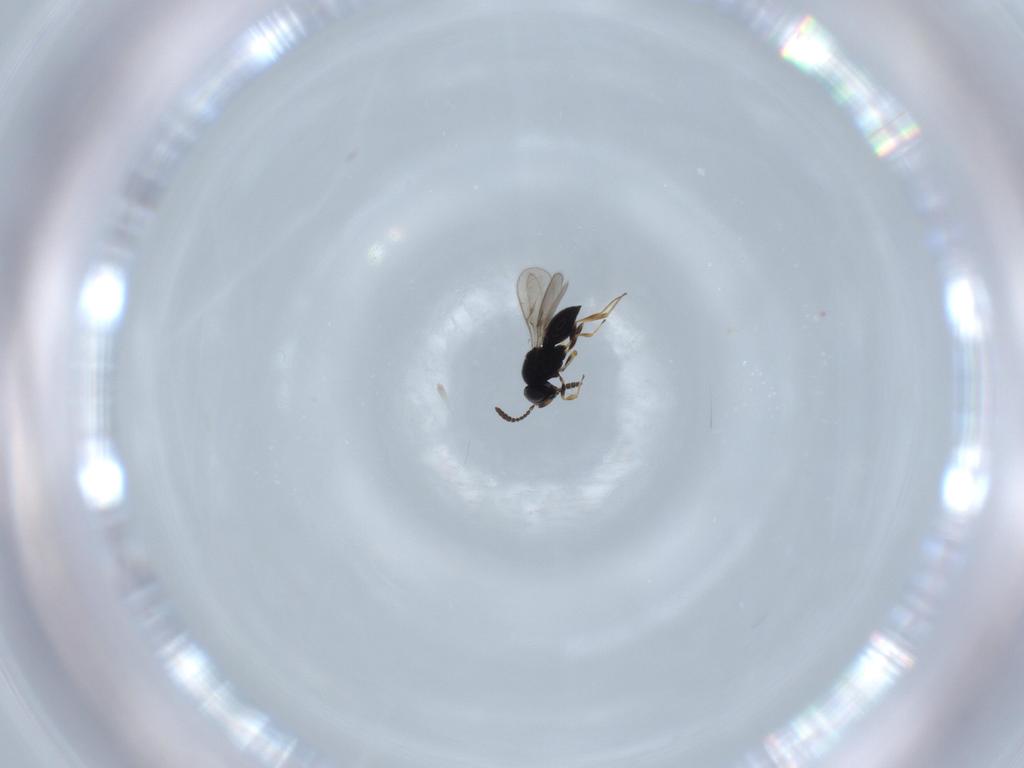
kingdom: Animalia
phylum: Arthropoda
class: Insecta
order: Hymenoptera
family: Scelionidae
